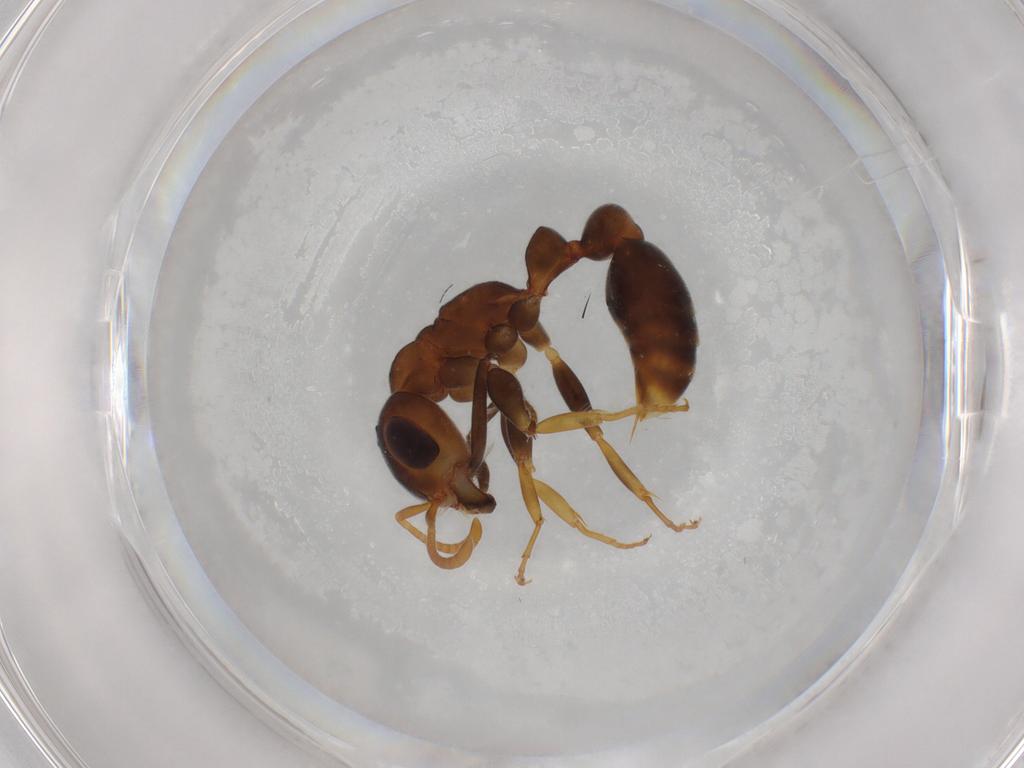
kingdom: Animalia
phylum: Arthropoda
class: Insecta
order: Hymenoptera
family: Formicidae
